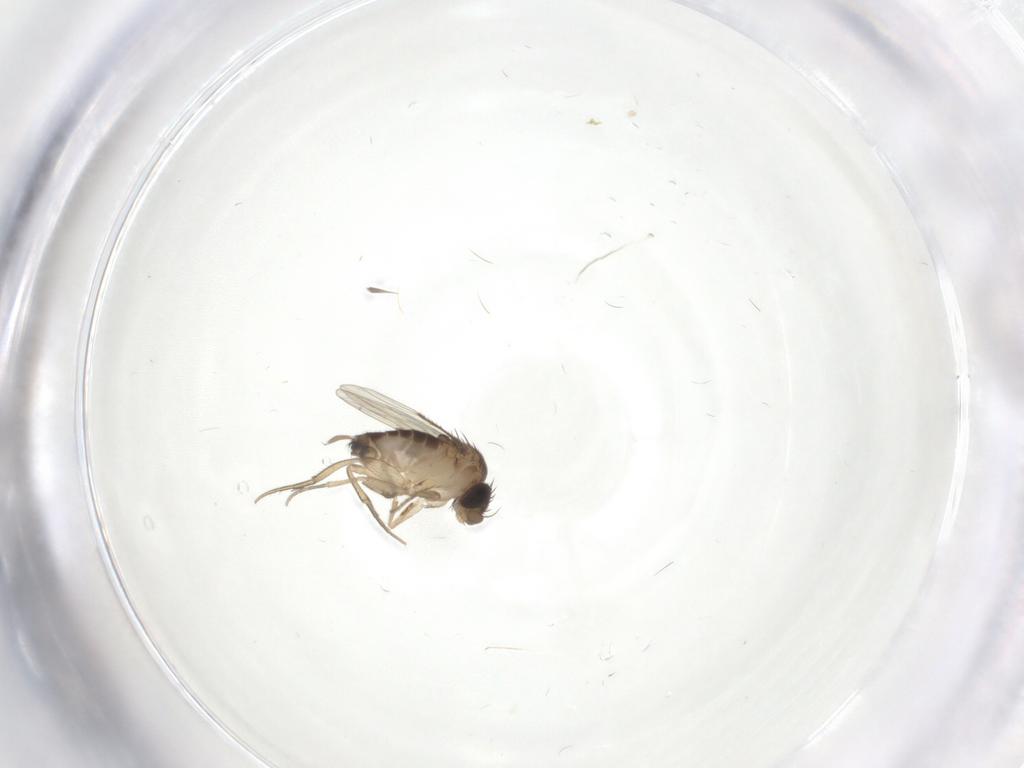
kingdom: Animalia
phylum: Arthropoda
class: Insecta
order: Diptera
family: Phoridae
